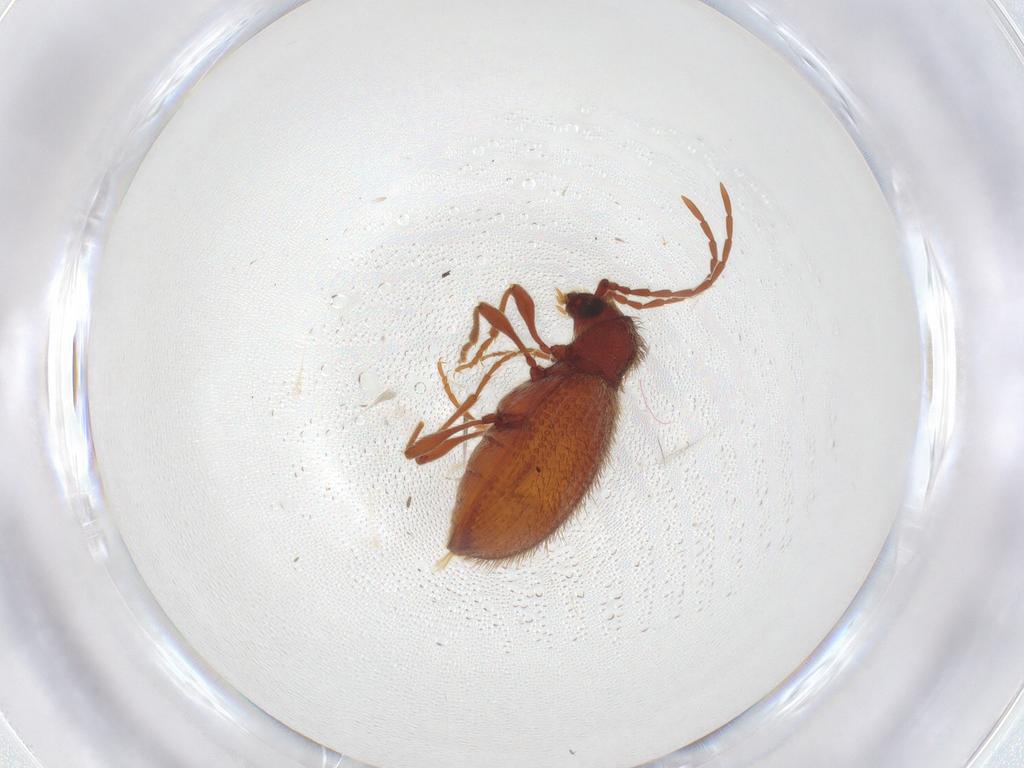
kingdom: Animalia
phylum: Arthropoda
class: Insecta
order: Coleoptera
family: Ptinidae
